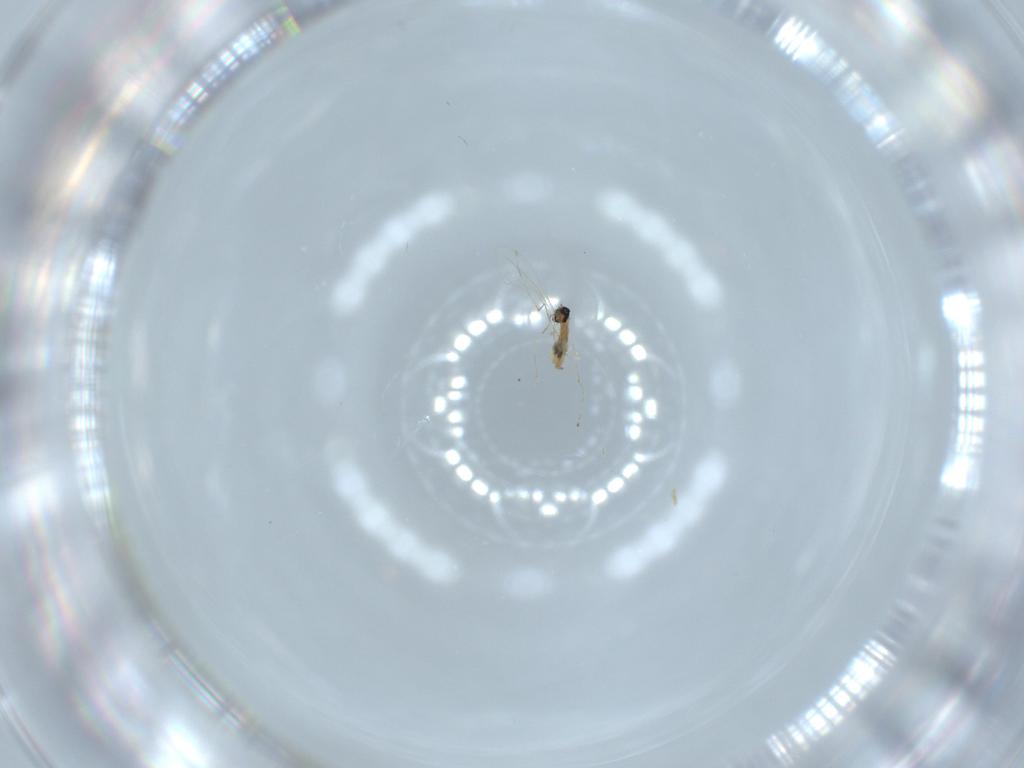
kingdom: Animalia
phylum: Arthropoda
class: Insecta
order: Diptera
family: Cecidomyiidae
